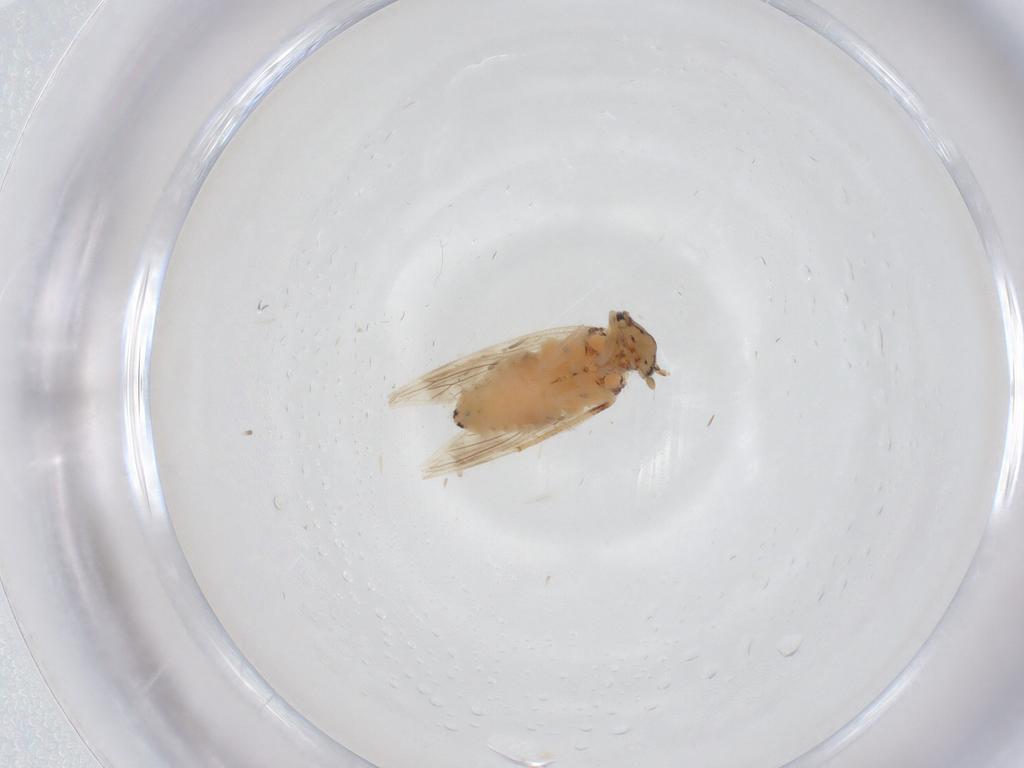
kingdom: Animalia
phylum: Arthropoda
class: Insecta
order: Psocodea
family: Lepidopsocidae
